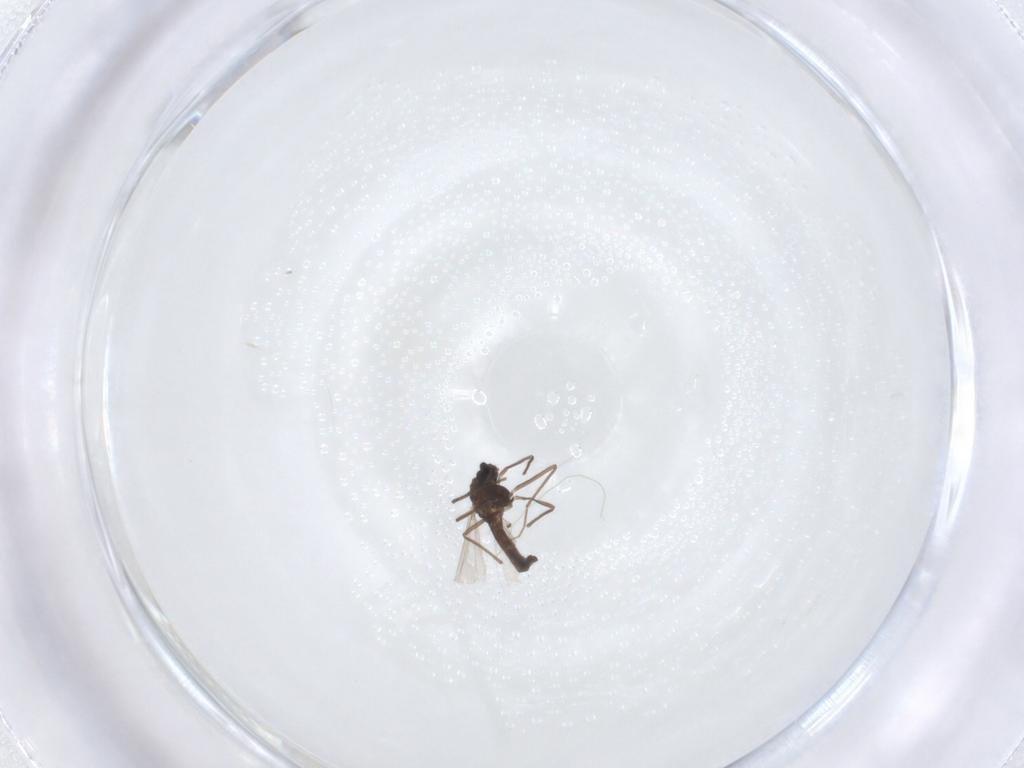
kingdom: Animalia
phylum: Arthropoda
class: Insecta
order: Diptera
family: Chironomidae
